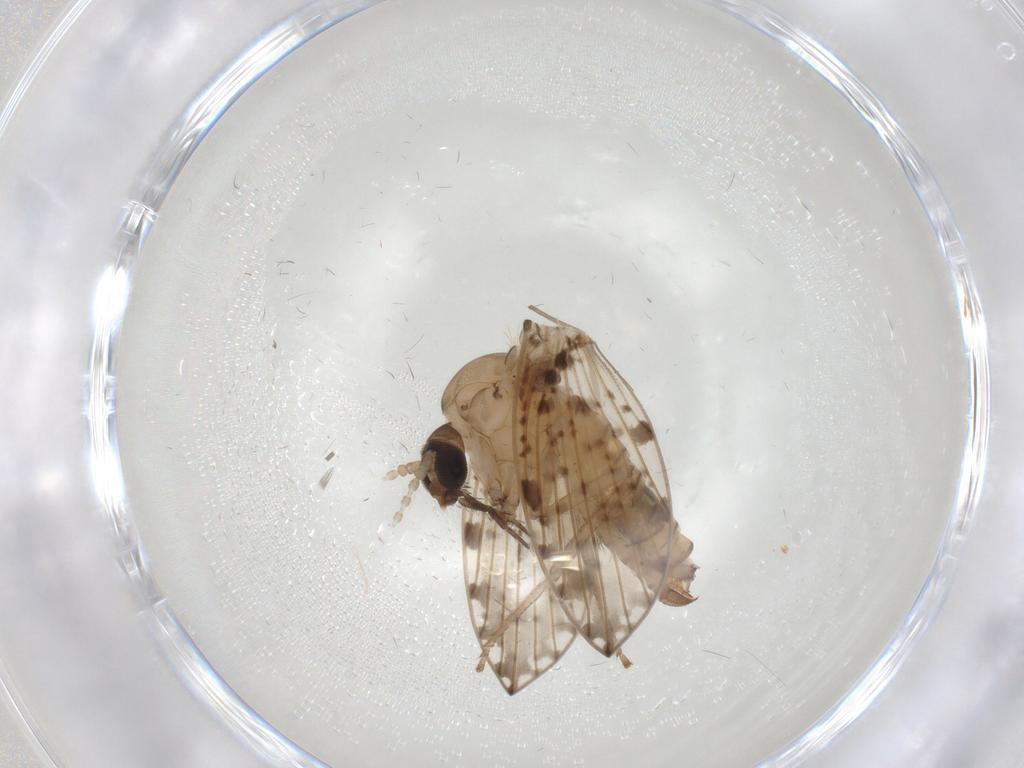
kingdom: Animalia
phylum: Arthropoda
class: Insecta
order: Diptera
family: Psychodidae
